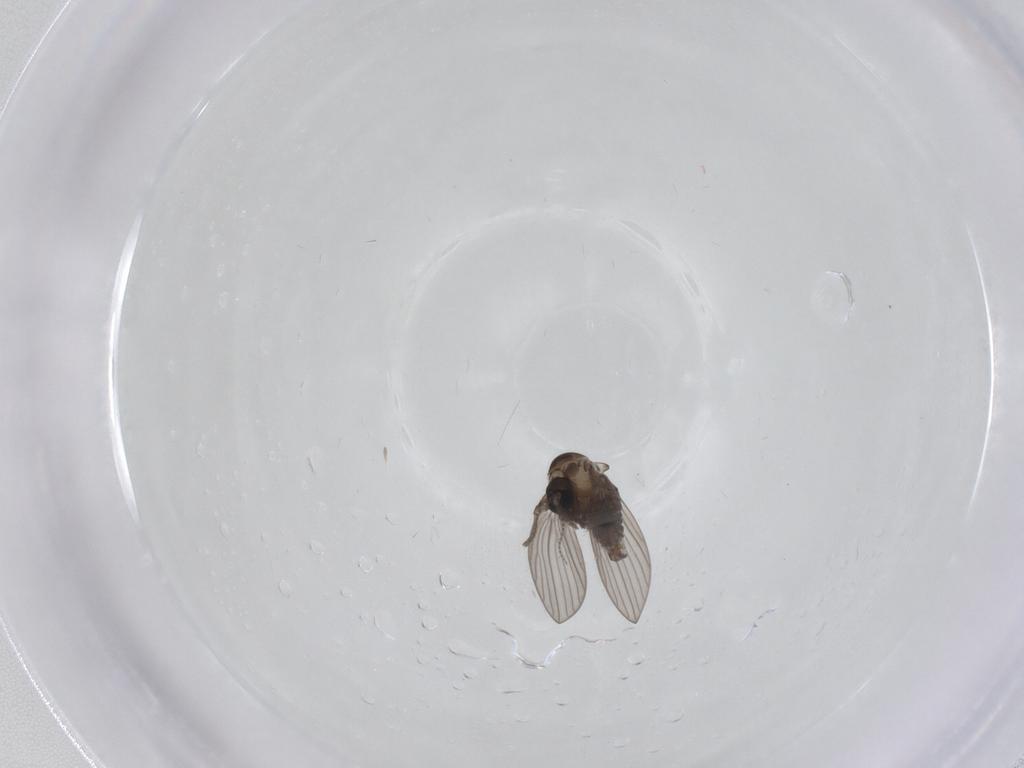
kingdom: Animalia
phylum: Arthropoda
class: Insecta
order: Diptera
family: Psychodidae
